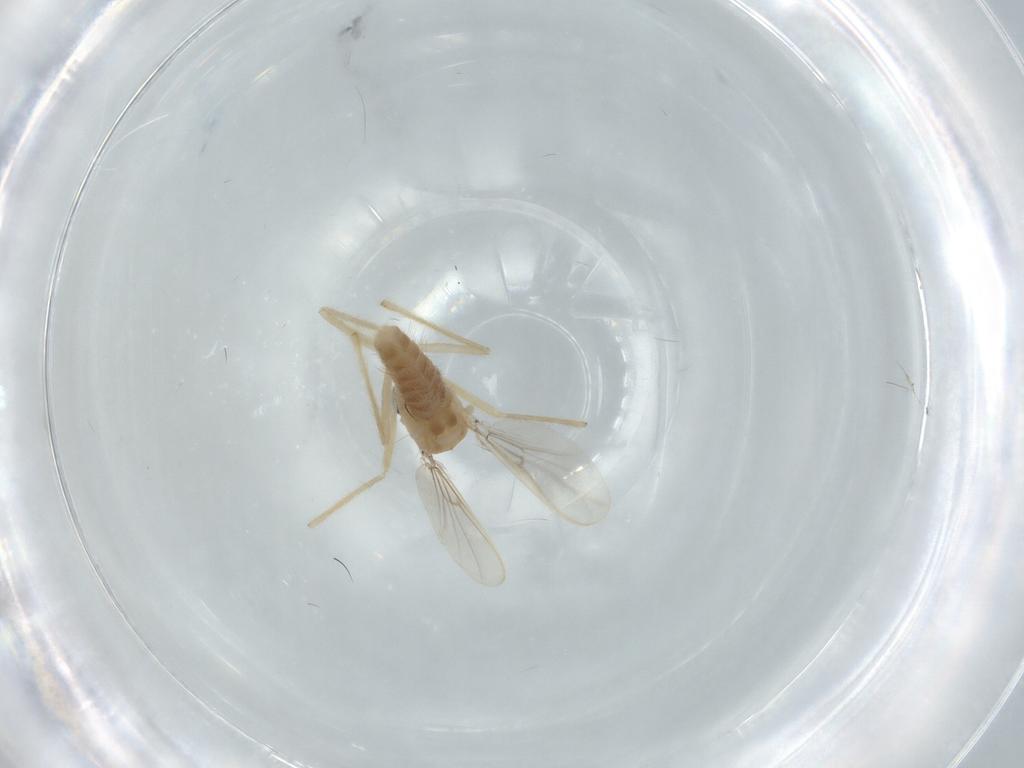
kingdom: Animalia
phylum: Arthropoda
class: Insecta
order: Diptera
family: Chironomidae
